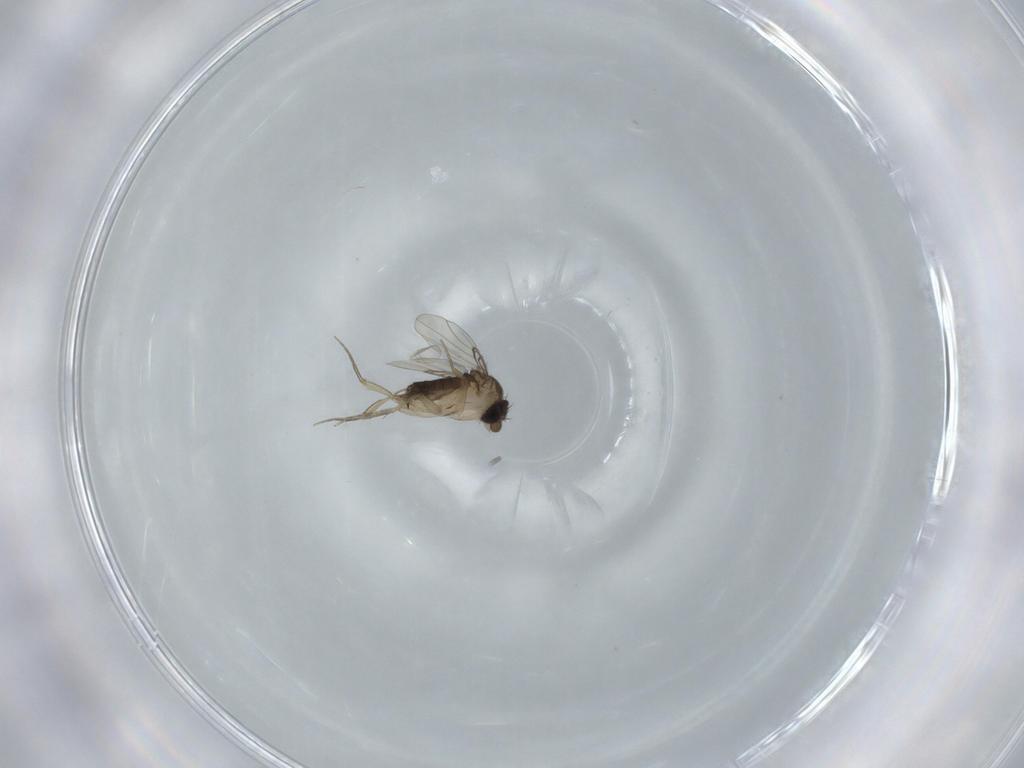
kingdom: Animalia
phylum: Arthropoda
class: Insecta
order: Diptera
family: Phoridae
